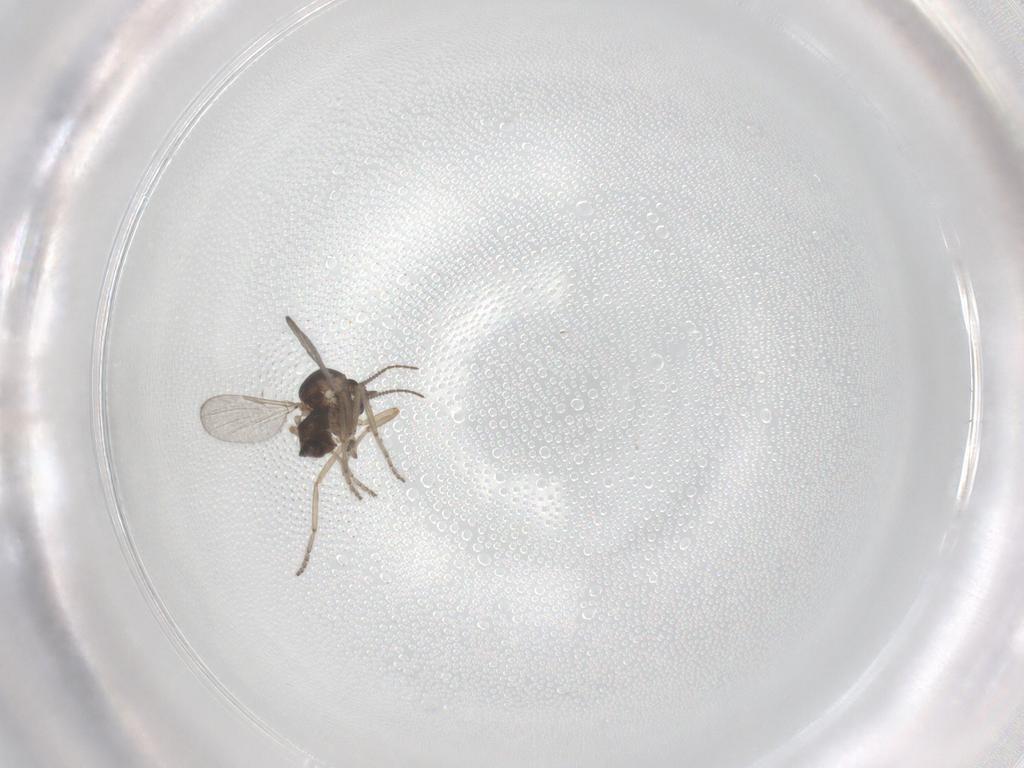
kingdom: Animalia
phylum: Arthropoda
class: Insecta
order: Diptera
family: Ceratopogonidae
